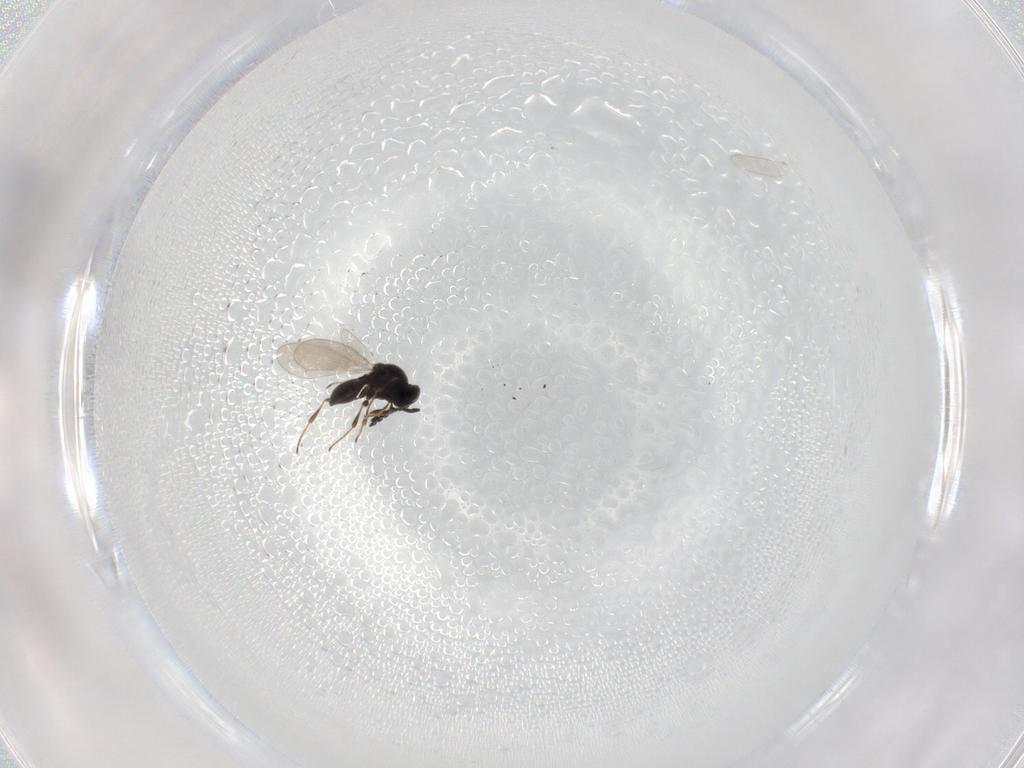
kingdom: Animalia
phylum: Arthropoda
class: Insecta
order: Hymenoptera
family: Platygastridae
